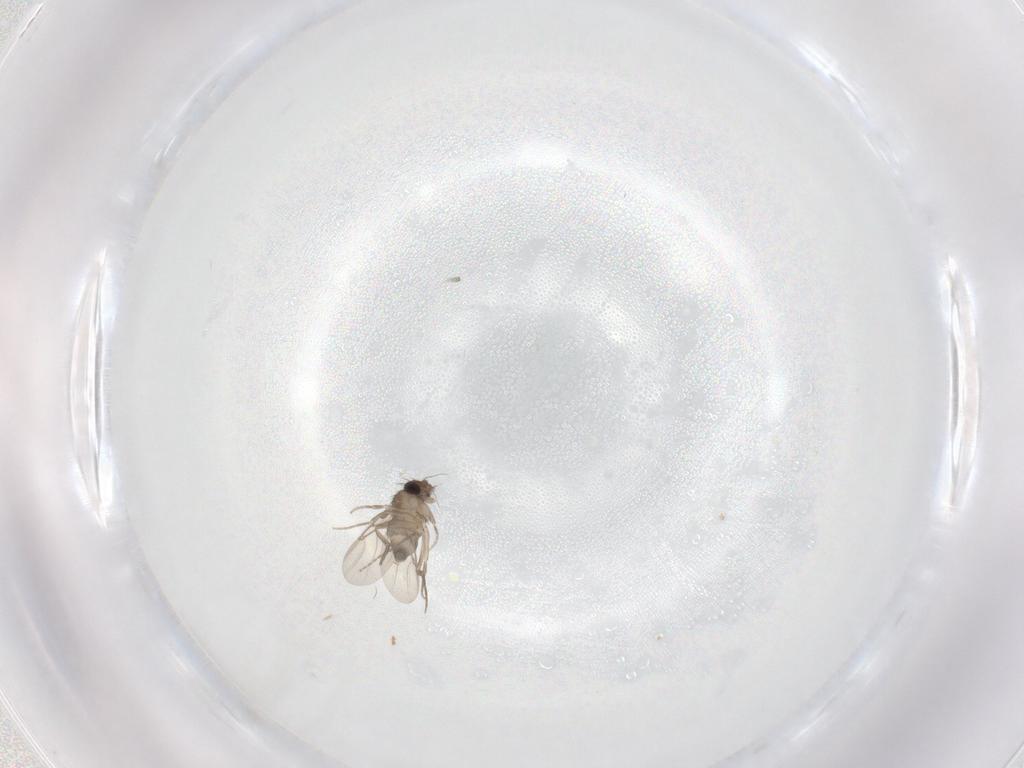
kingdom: Animalia
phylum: Arthropoda
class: Insecta
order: Diptera
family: Phoridae
